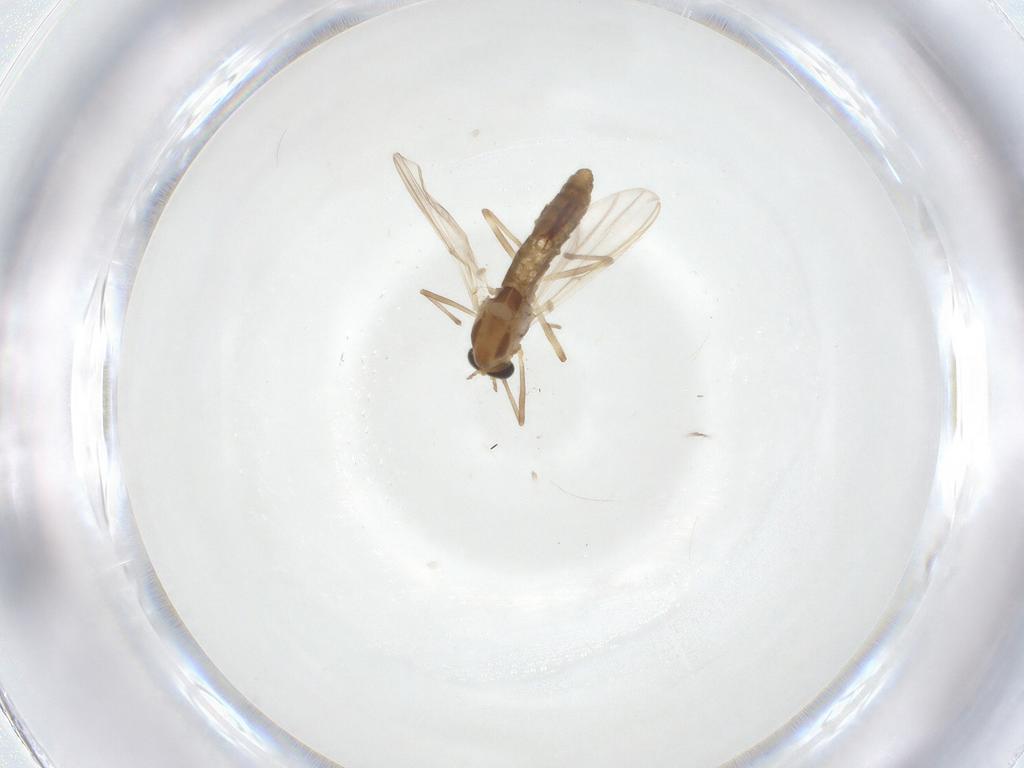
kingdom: Animalia
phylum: Arthropoda
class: Insecta
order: Diptera
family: Chironomidae
